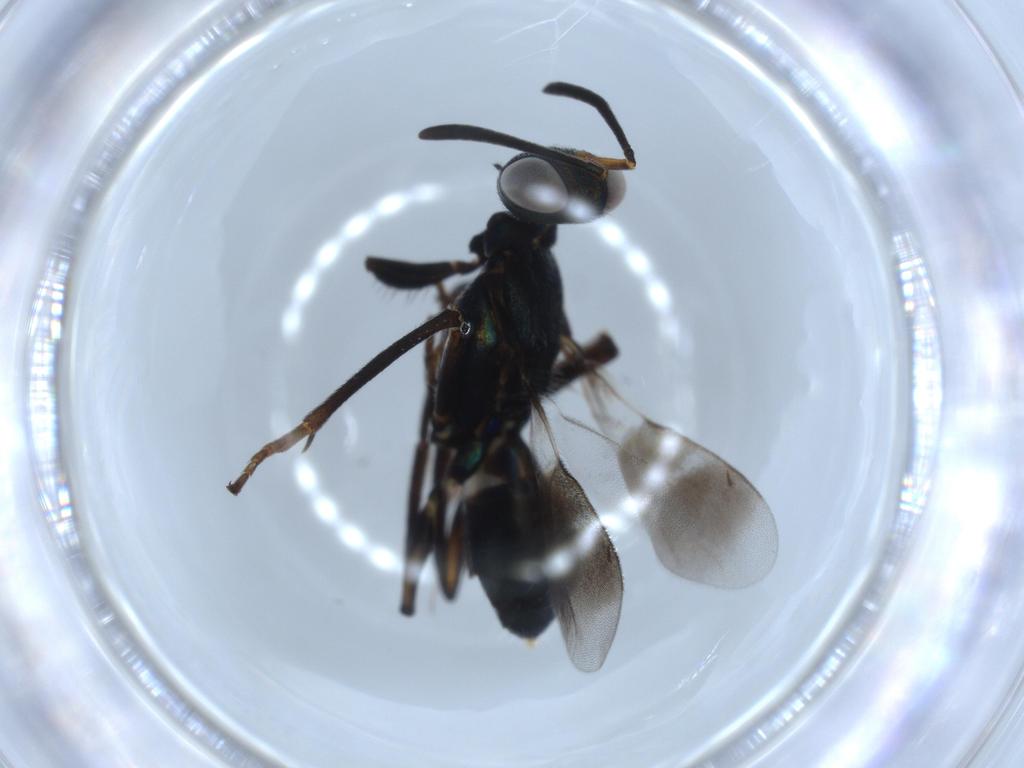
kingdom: Animalia
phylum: Arthropoda
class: Insecta
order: Hymenoptera
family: Eupelmidae
